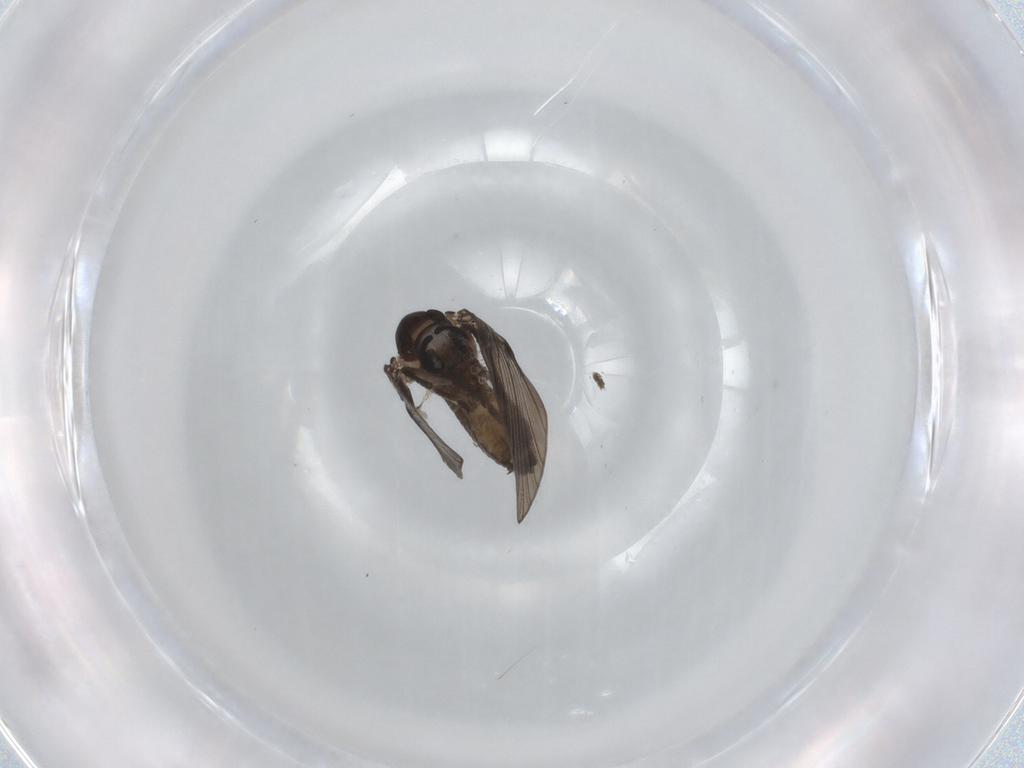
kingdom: Animalia
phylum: Arthropoda
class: Insecta
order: Diptera
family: Psychodidae
